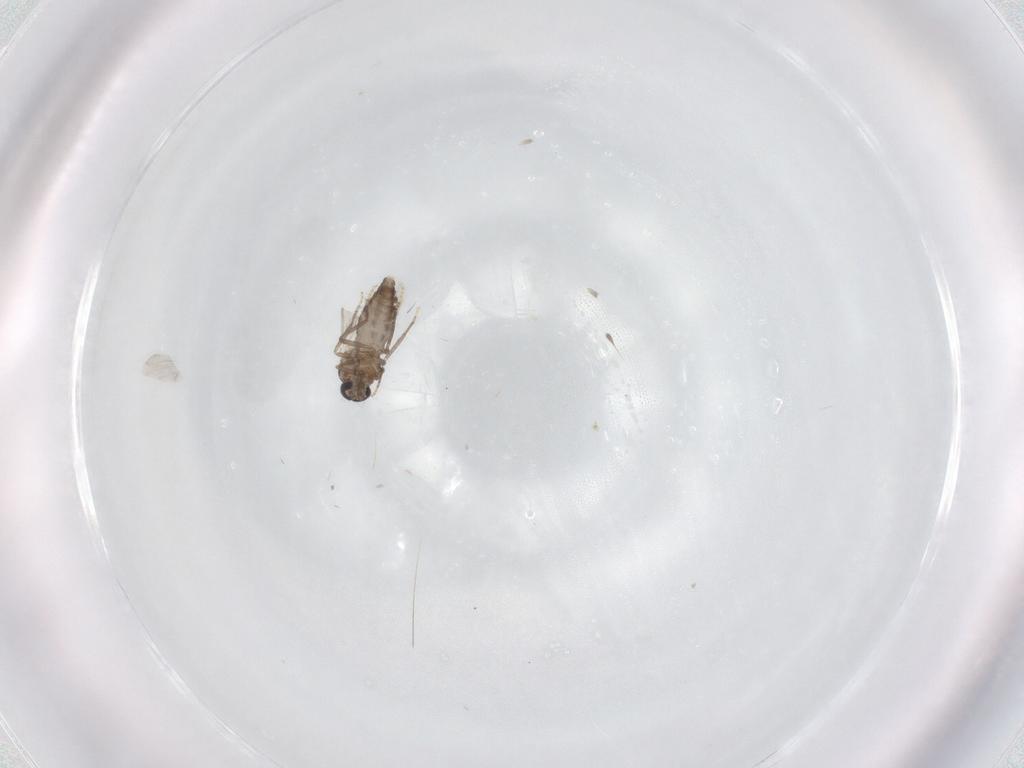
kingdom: Animalia
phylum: Arthropoda
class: Insecta
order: Diptera
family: Ceratopogonidae
